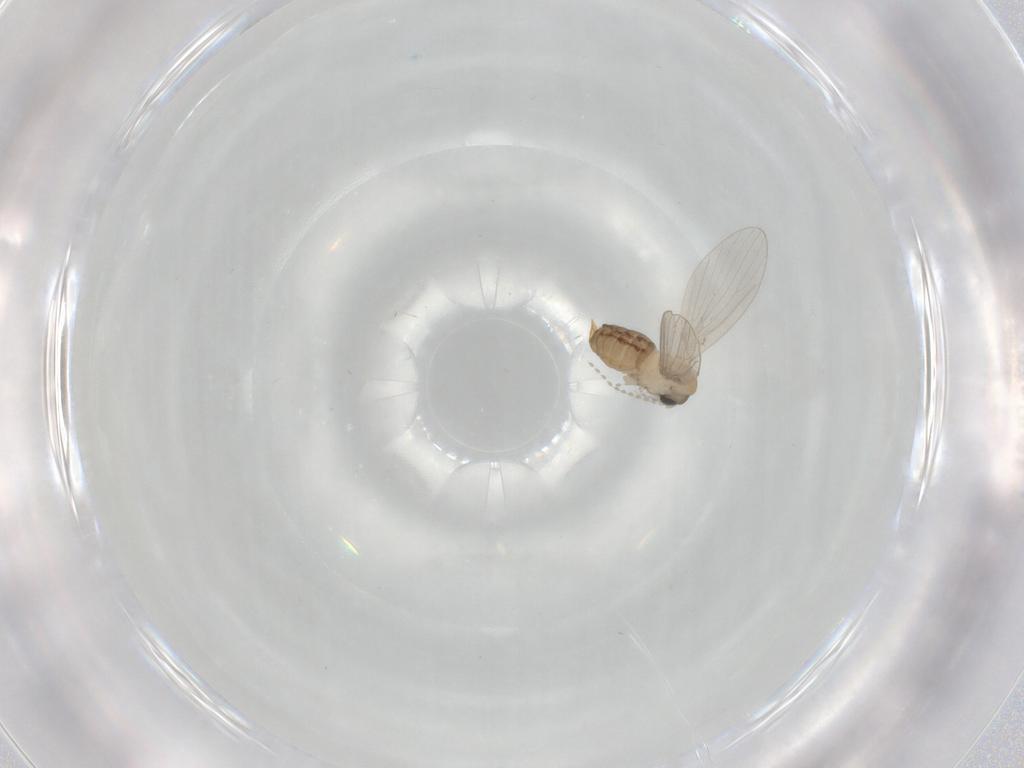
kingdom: Animalia
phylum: Arthropoda
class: Insecta
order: Diptera
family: Psychodidae
